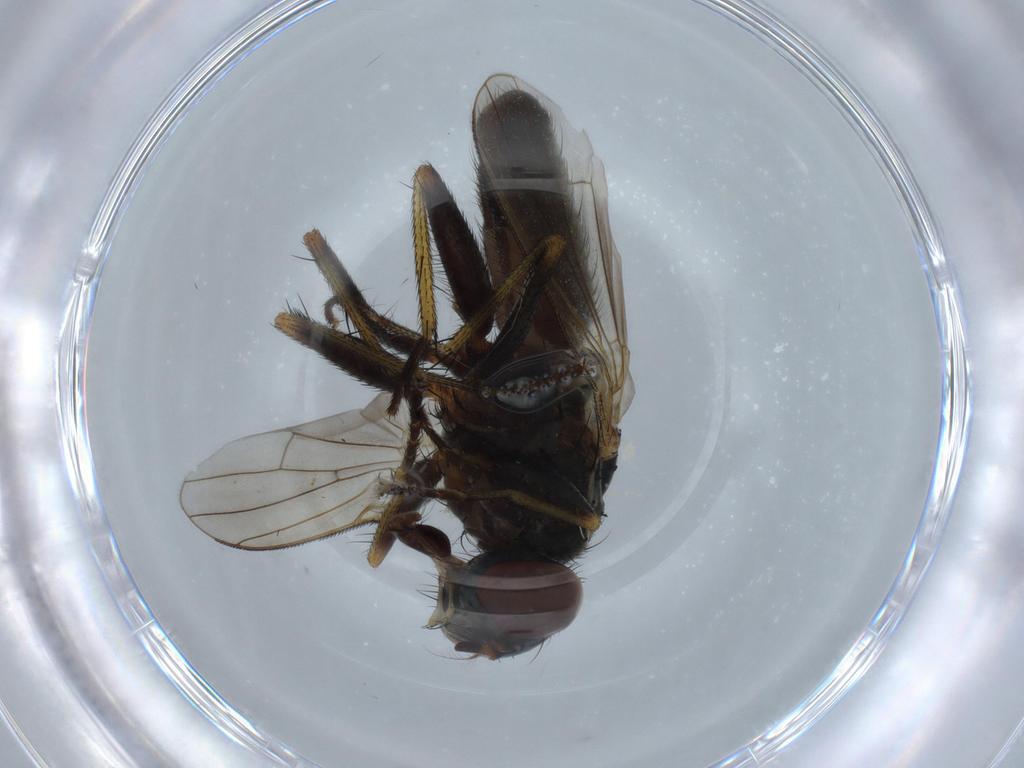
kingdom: Animalia
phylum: Arthropoda
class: Insecta
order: Diptera
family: Muscidae
